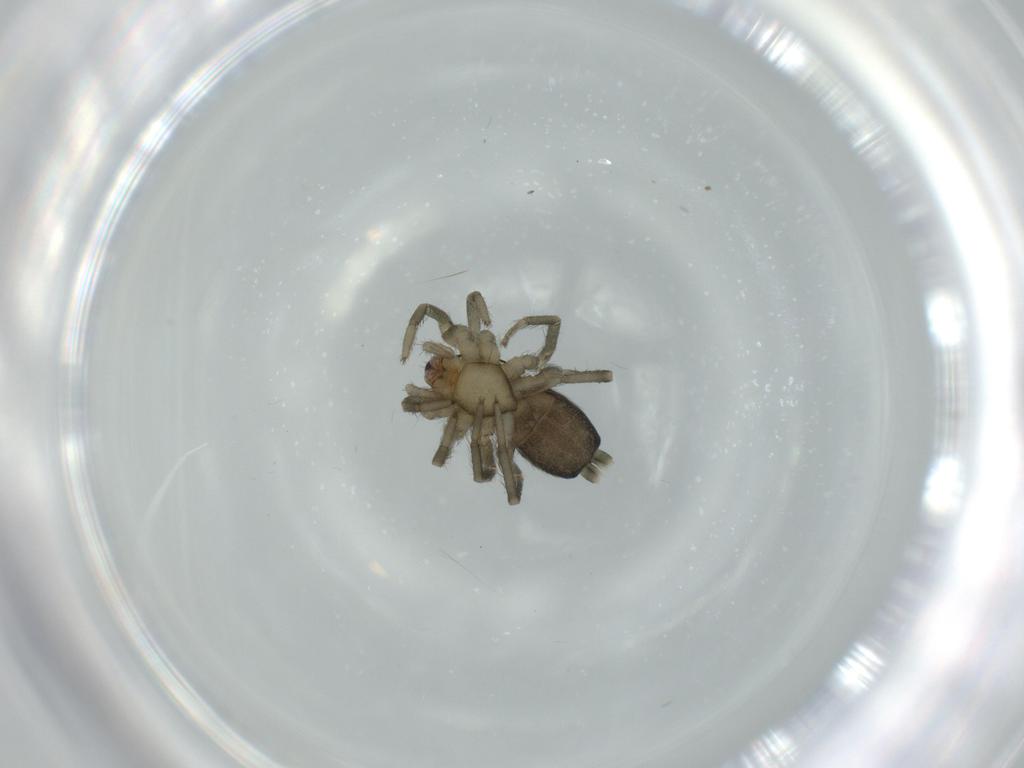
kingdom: Animalia
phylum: Arthropoda
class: Arachnida
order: Araneae
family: Gnaphosidae
